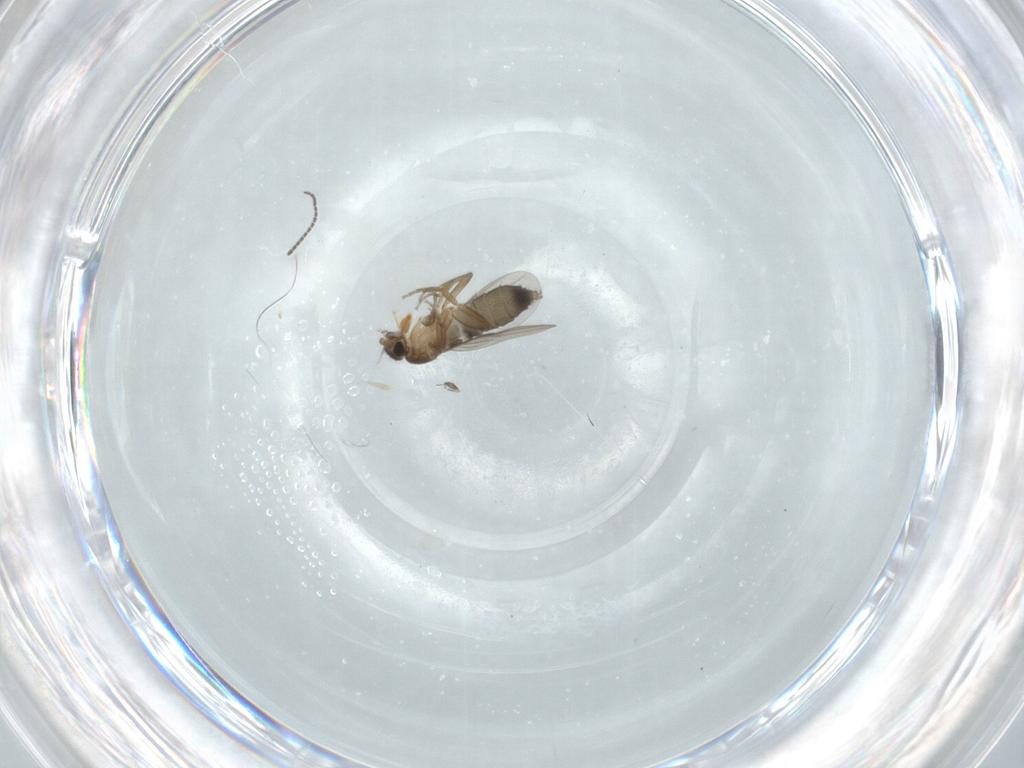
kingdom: Animalia
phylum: Arthropoda
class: Insecta
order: Diptera
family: Phoridae
